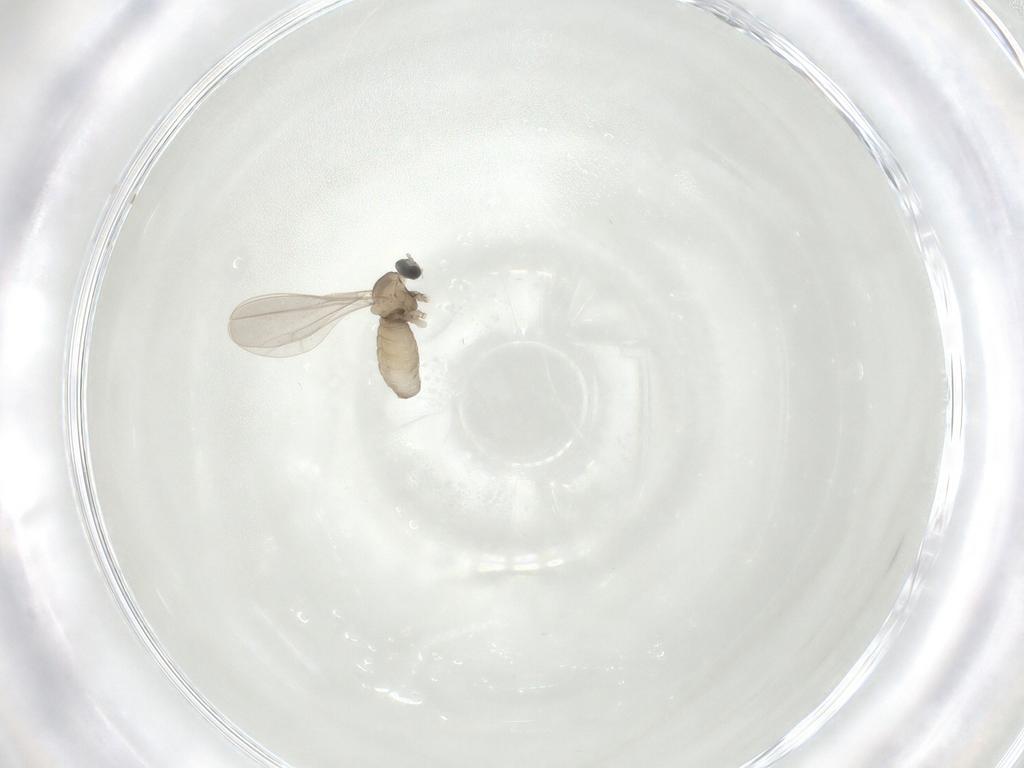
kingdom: Animalia
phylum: Arthropoda
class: Insecta
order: Diptera
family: Cecidomyiidae
